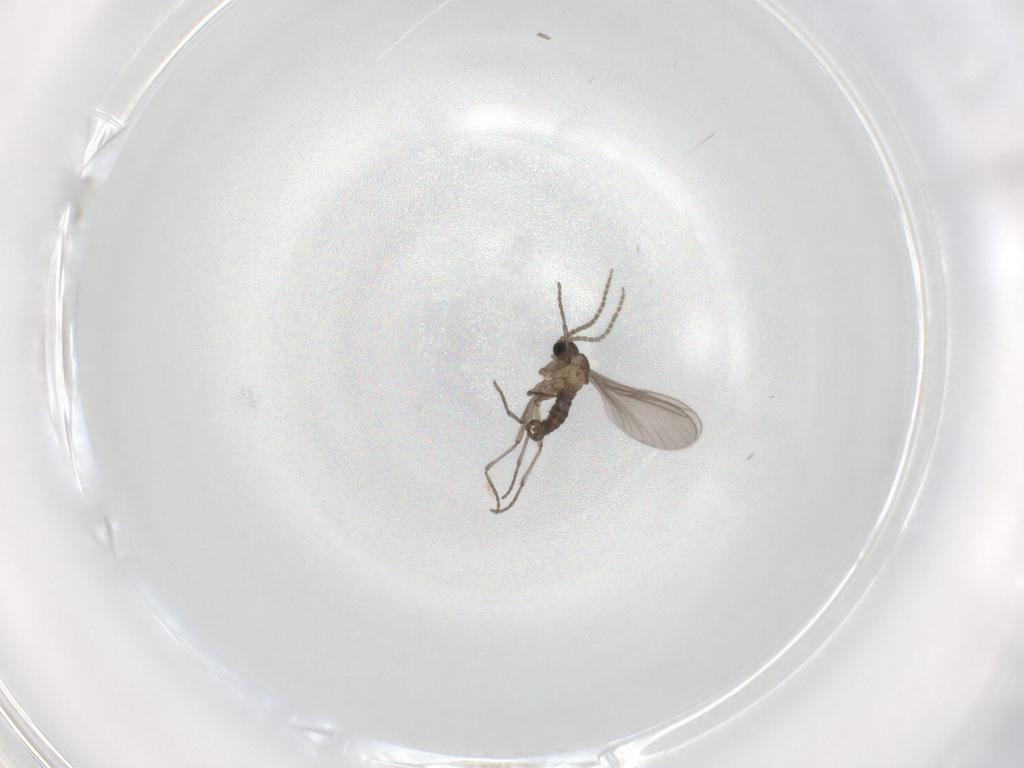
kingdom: Animalia
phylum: Arthropoda
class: Insecta
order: Diptera
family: Sciaridae
